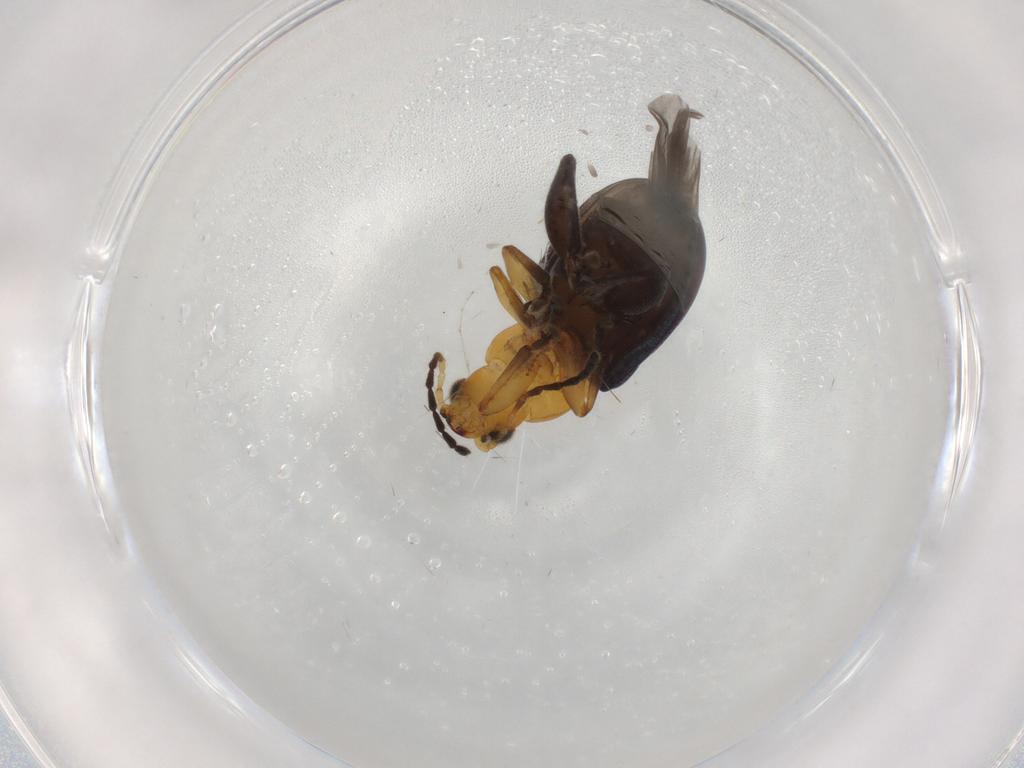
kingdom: Animalia
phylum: Arthropoda
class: Insecta
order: Coleoptera
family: Chrysomelidae
